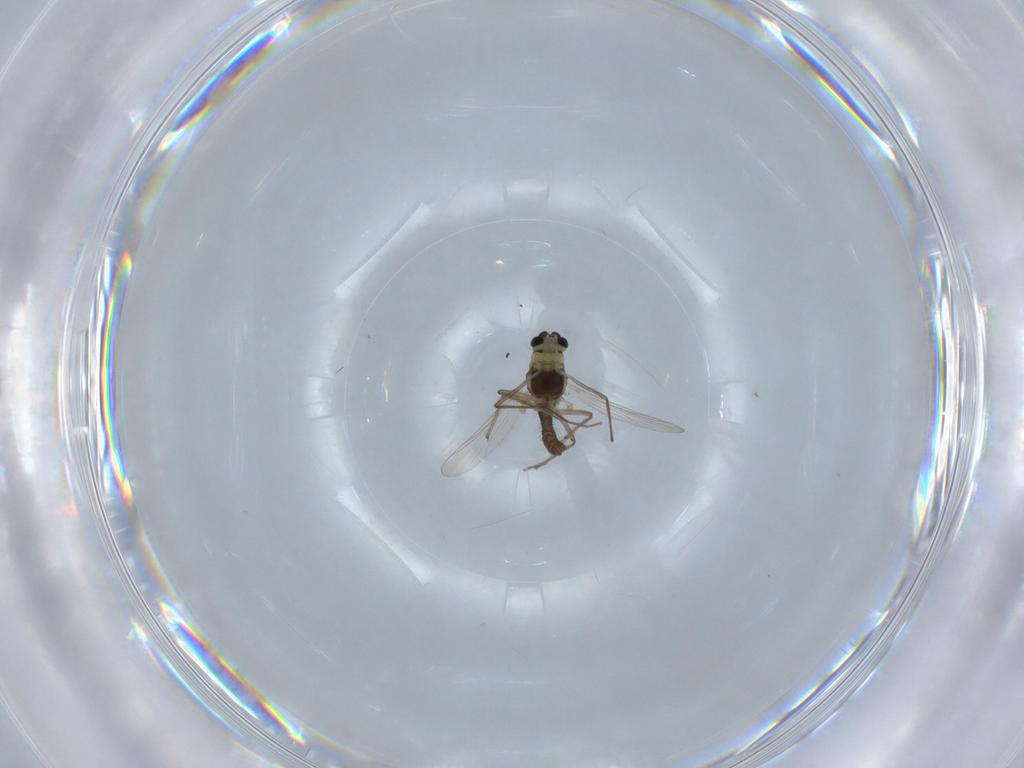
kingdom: Animalia
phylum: Arthropoda
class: Insecta
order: Diptera
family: Chironomidae
